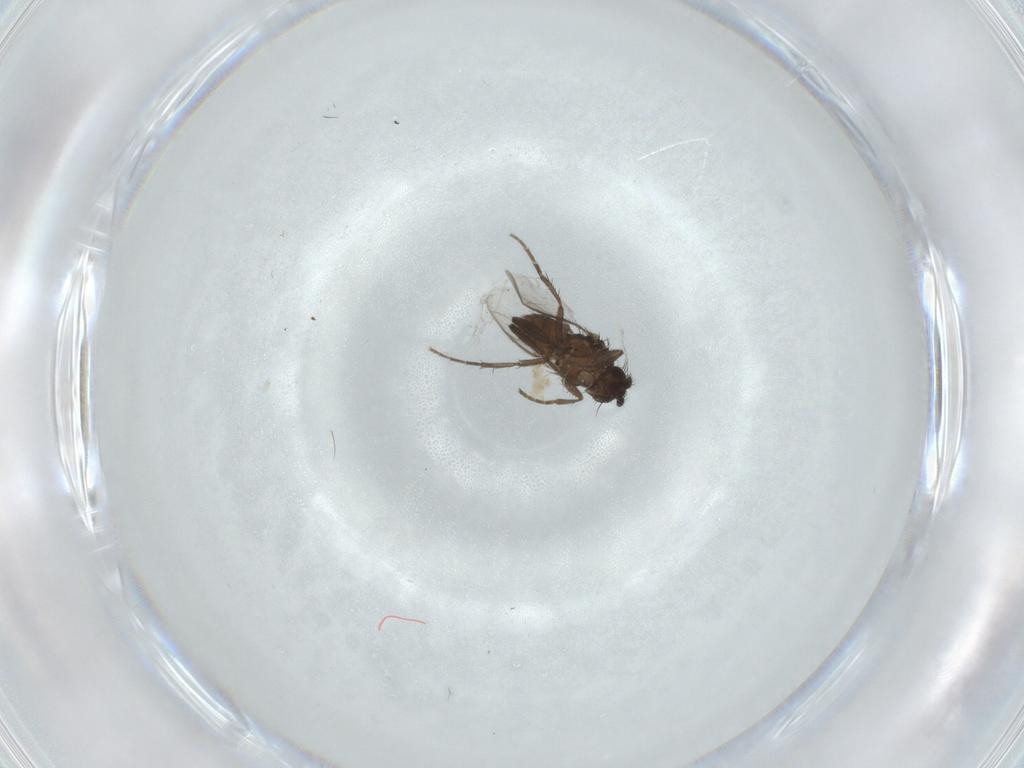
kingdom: Animalia
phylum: Arthropoda
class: Insecta
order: Diptera
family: Sphaeroceridae
